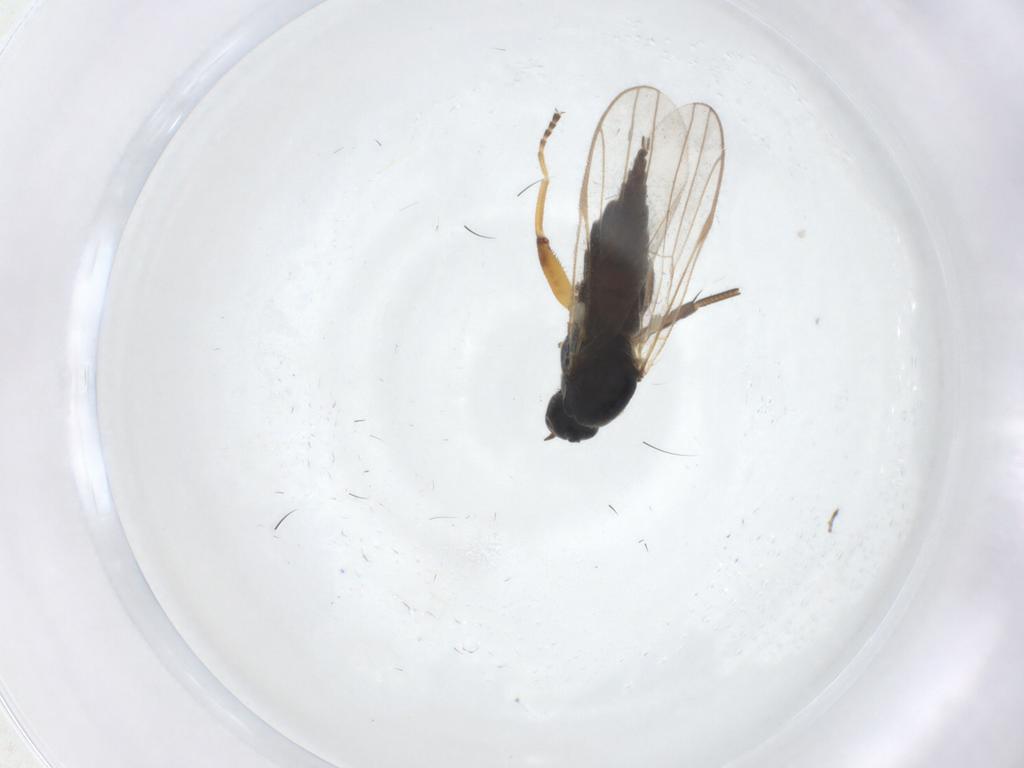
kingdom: Animalia
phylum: Arthropoda
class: Insecta
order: Diptera
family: Hybotidae
